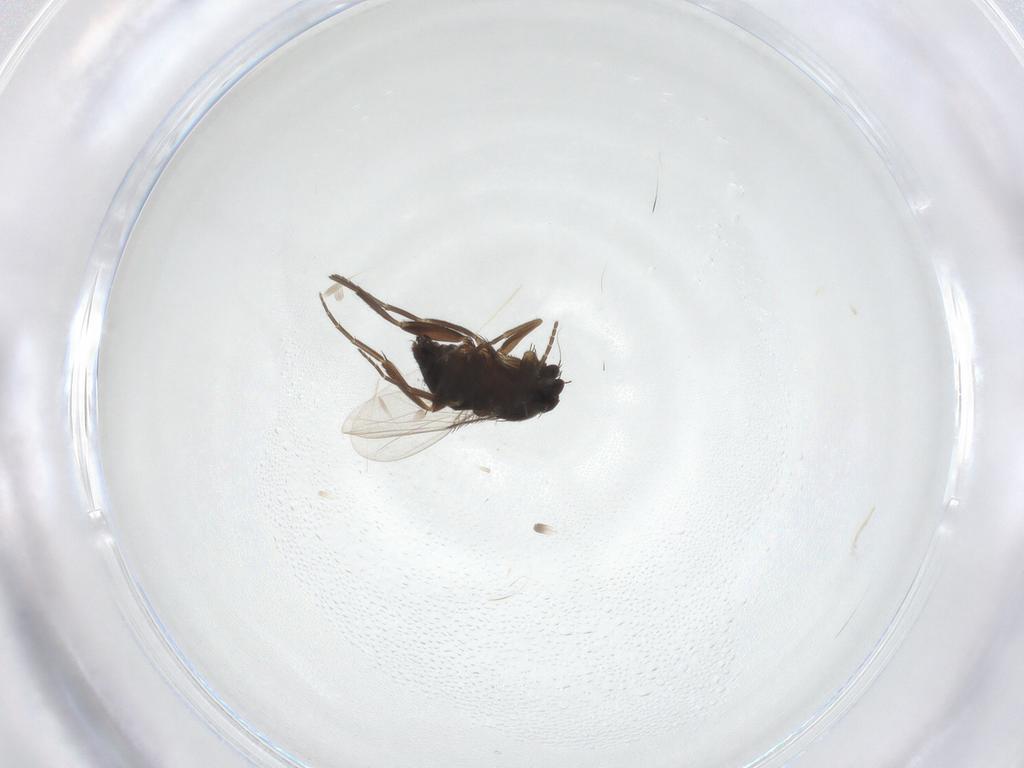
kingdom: Animalia
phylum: Arthropoda
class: Insecta
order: Diptera
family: Phoridae
